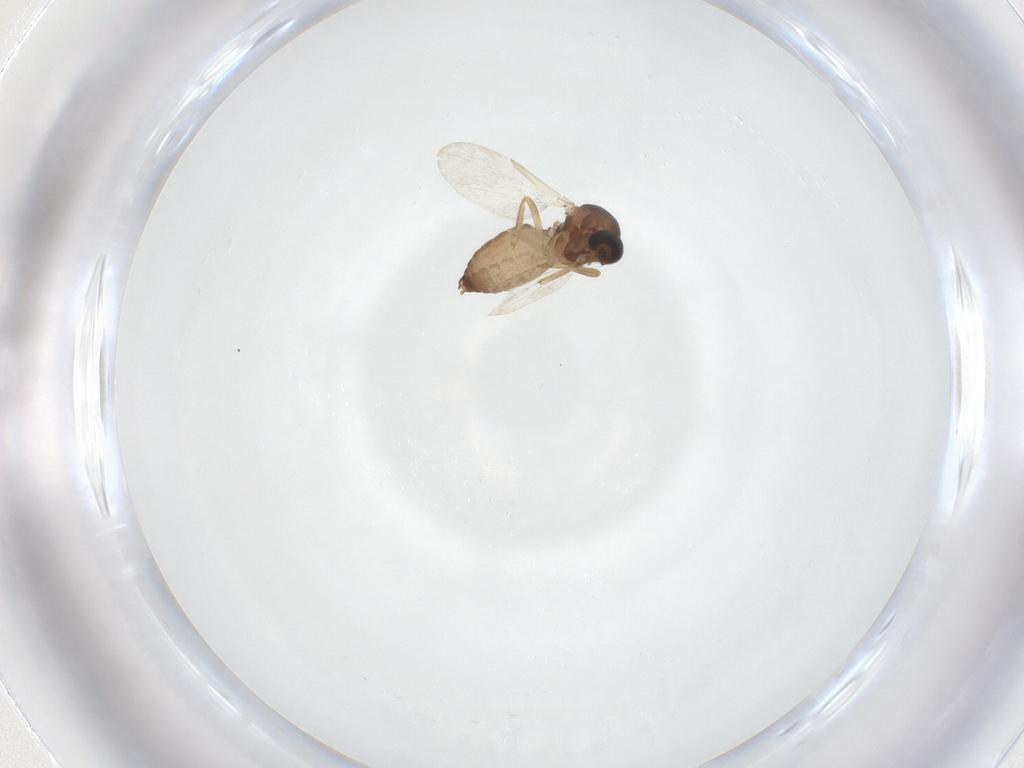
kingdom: Animalia
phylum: Arthropoda
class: Insecta
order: Diptera
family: Ceratopogonidae
